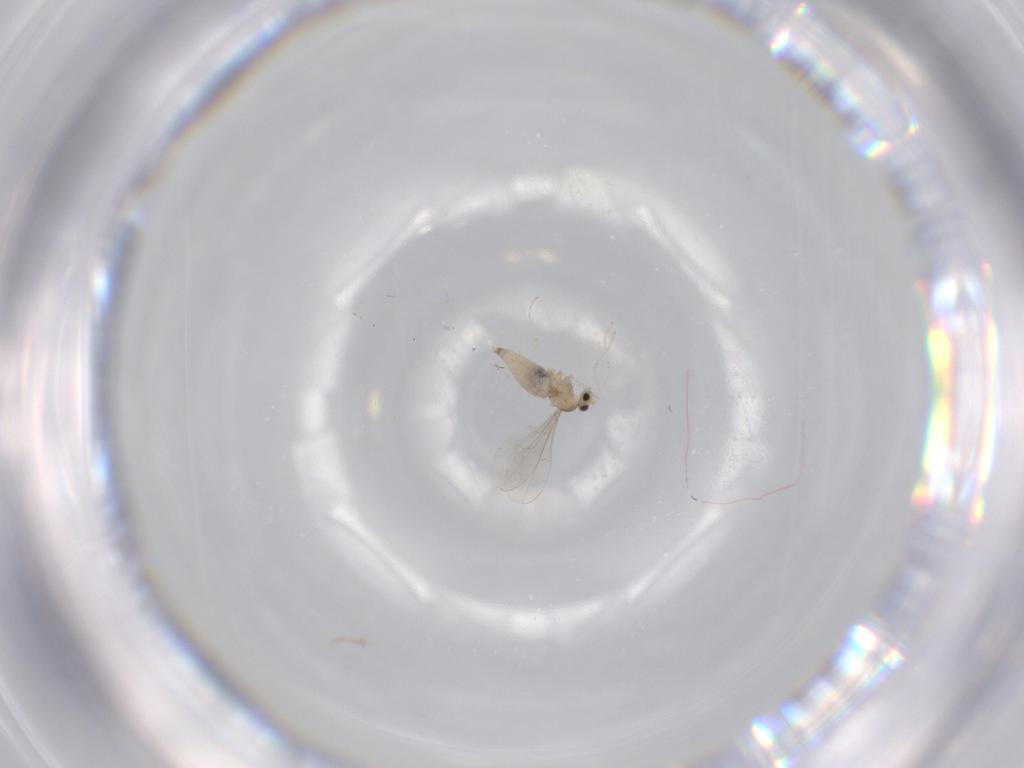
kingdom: Animalia
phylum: Arthropoda
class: Insecta
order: Diptera
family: Cecidomyiidae
